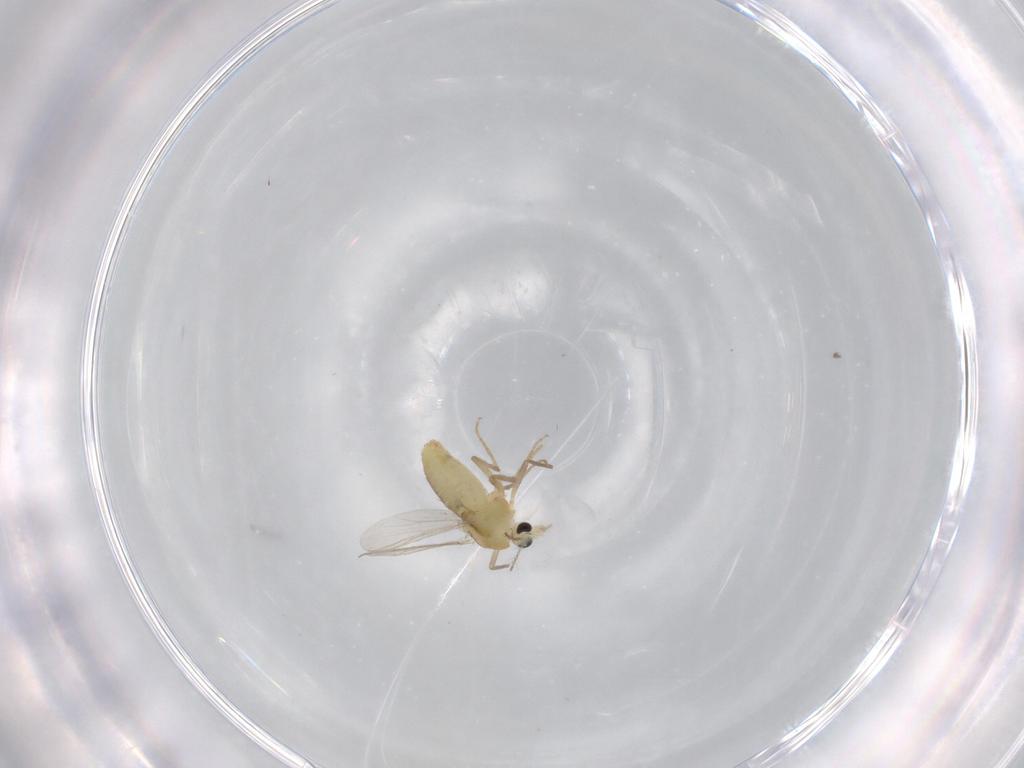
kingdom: Animalia
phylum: Arthropoda
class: Insecta
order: Diptera
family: Chironomidae
